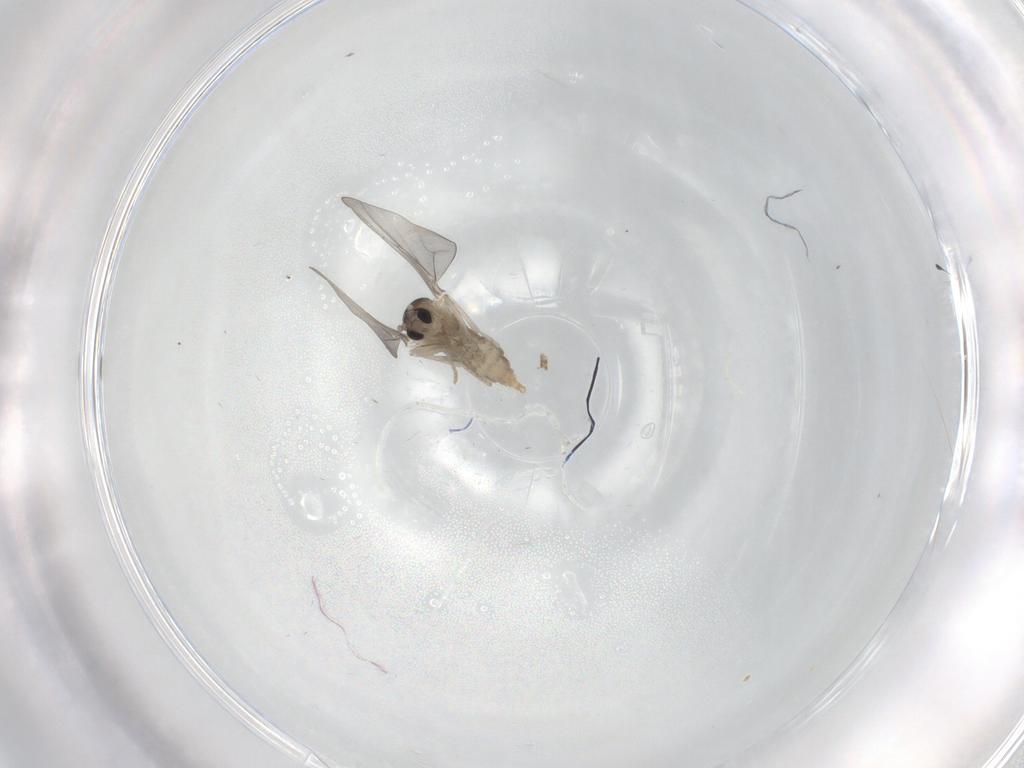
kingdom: Animalia
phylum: Arthropoda
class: Insecta
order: Diptera
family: Cecidomyiidae
